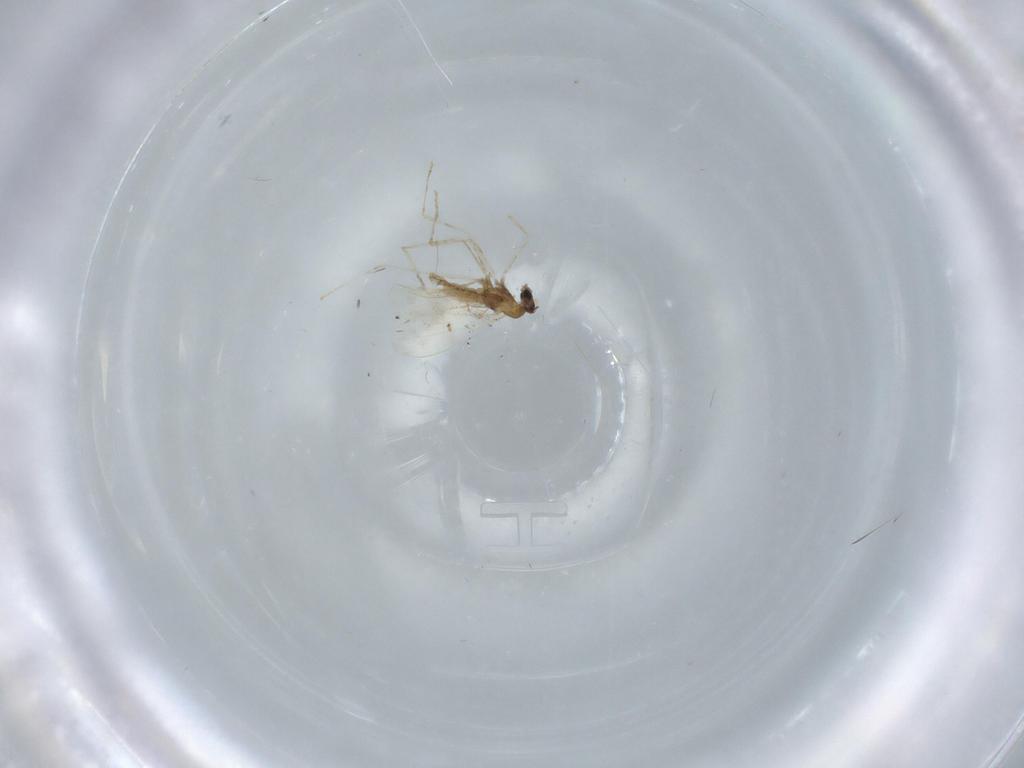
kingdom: Animalia
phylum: Arthropoda
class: Insecta
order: Diptera
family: Cecidomyiidae
